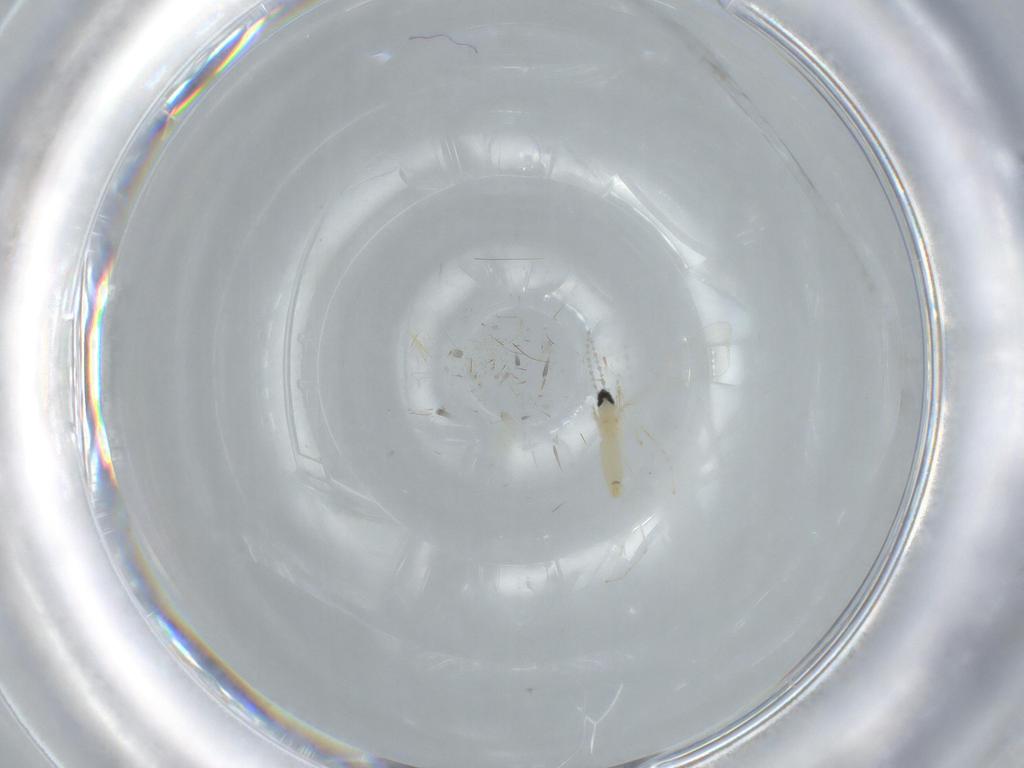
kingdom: Animalia
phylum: Arthropoda
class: Insecta
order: Diptera
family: Cecidomyiidae
